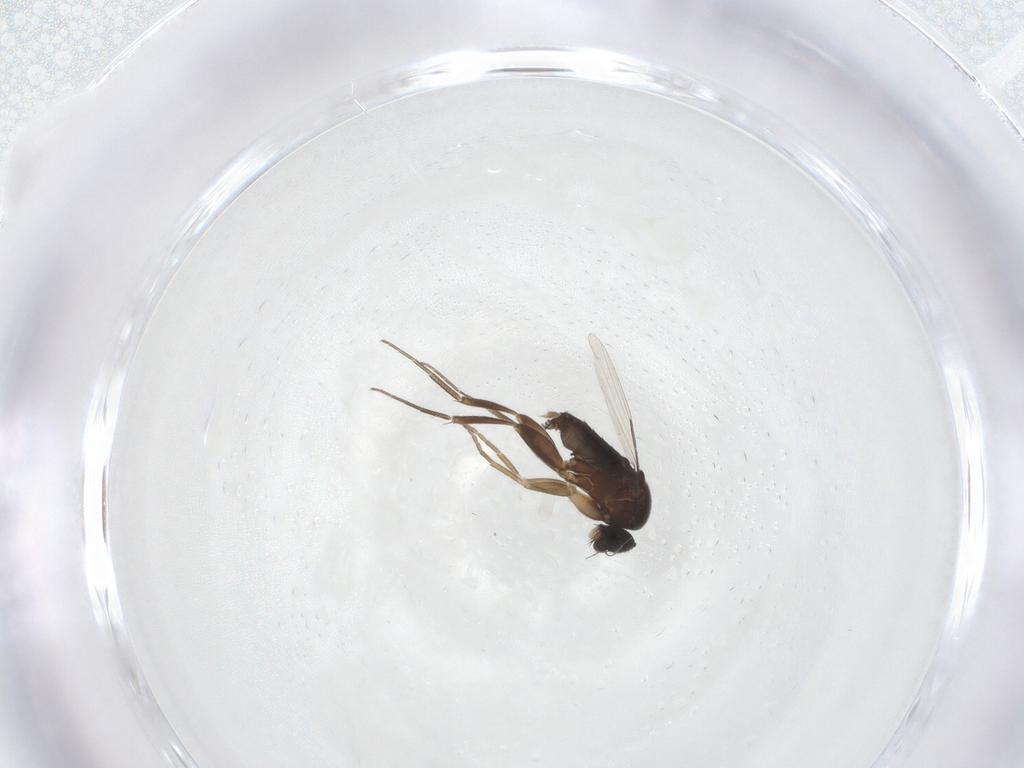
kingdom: Animalia
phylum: Arthropoda
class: Insecta
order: Diptera
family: Phoridae
